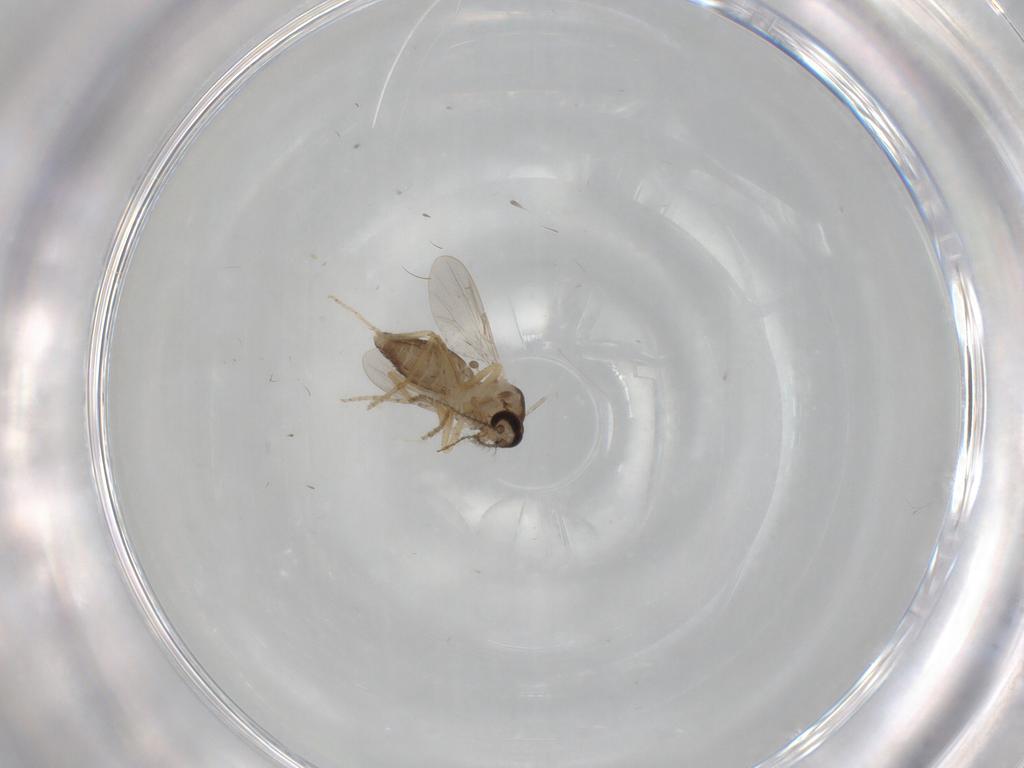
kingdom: Animalia
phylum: Arthropoda
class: Insecta
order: Diptera
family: Ceratopogonidae
